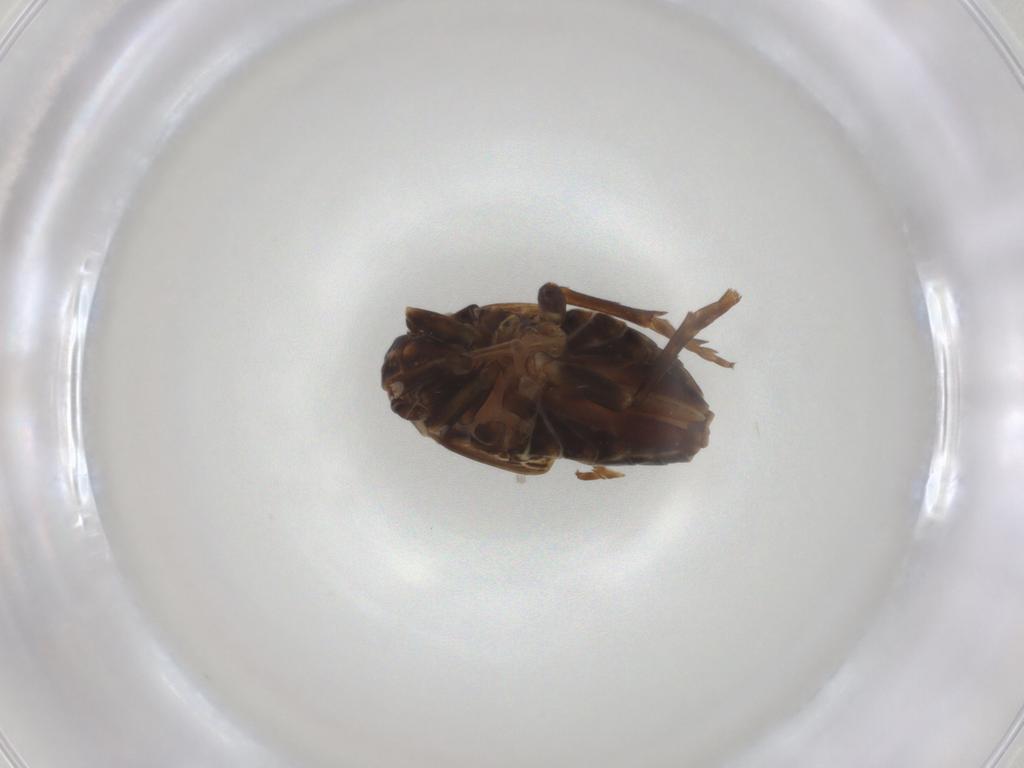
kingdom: Animalia
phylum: Arthropoda
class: Insecta
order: Hemiptera
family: Delphacidae
